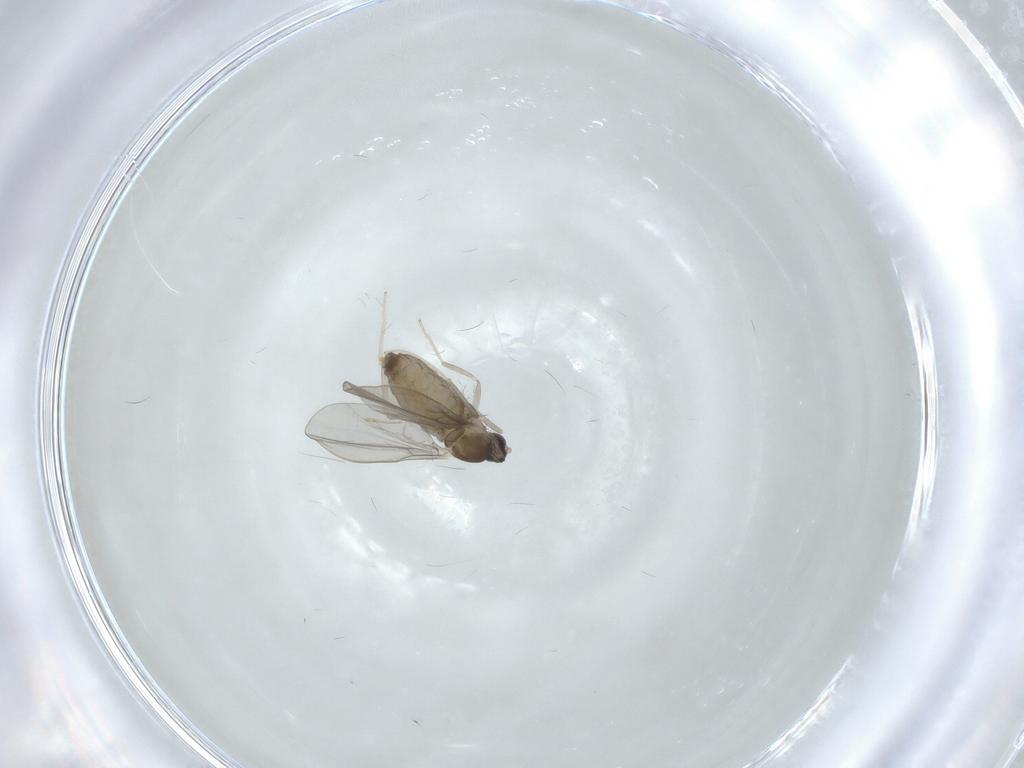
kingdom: Animalia
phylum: Arthropoda
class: Insecta
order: Diptera
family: Cecidomyiidae
